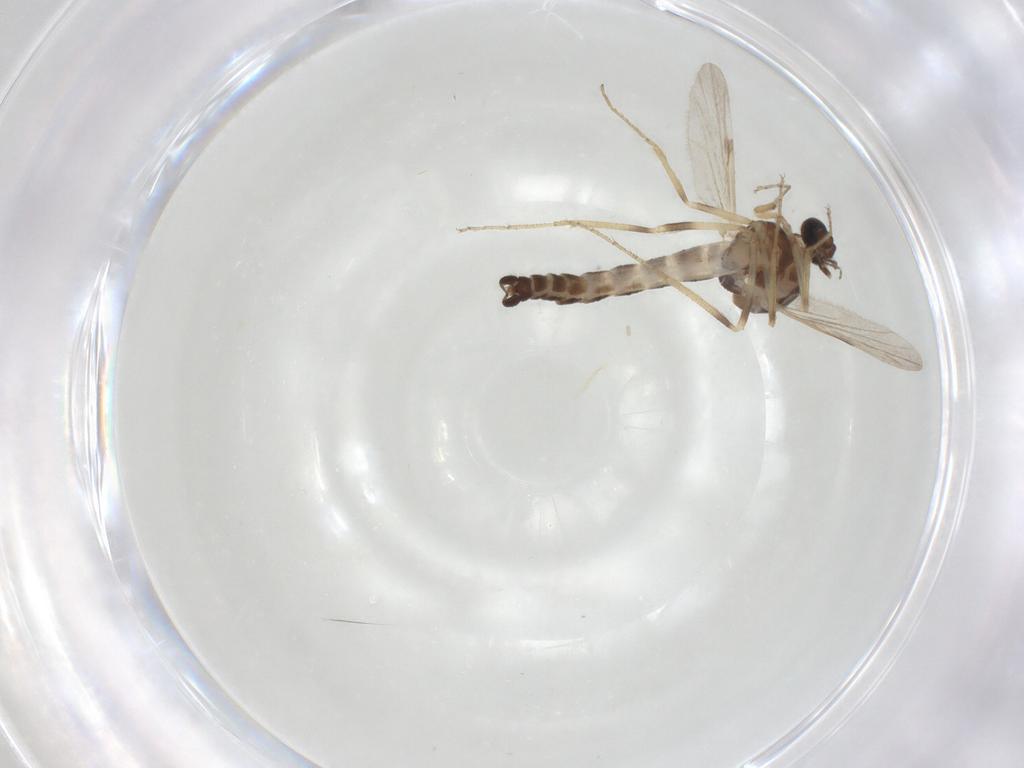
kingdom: Animalia
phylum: Arthropoda
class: Insecta
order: Diptera
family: Ceratopogonidae
